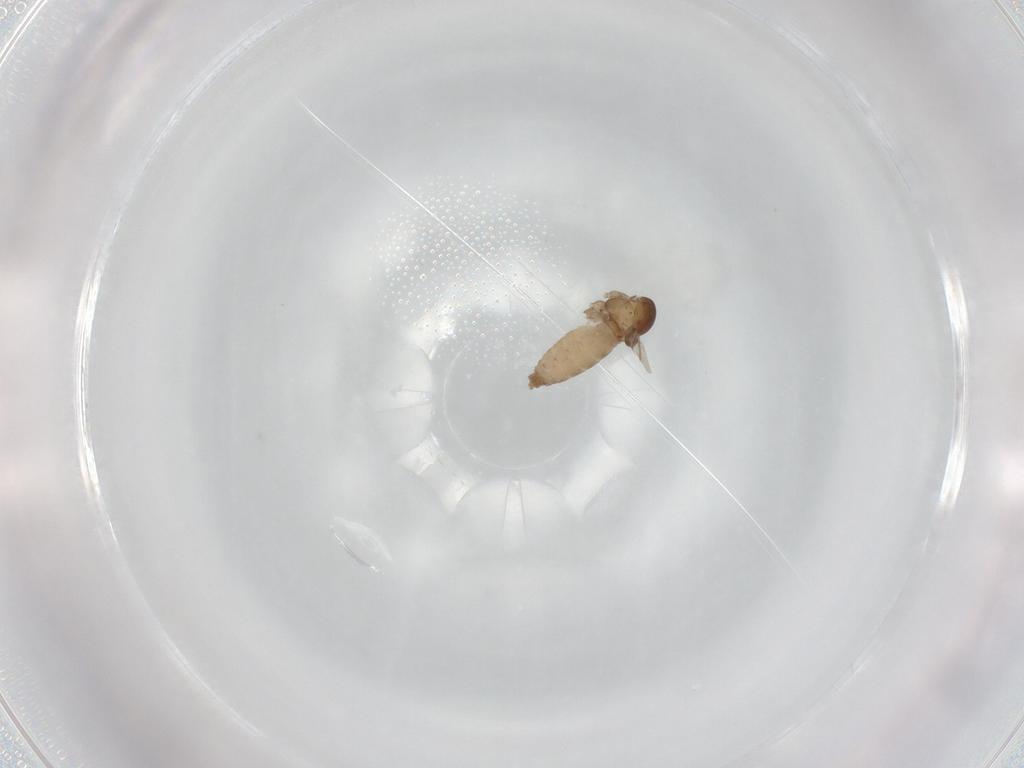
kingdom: Animalia
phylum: Arthropoda
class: Insecta
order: Diptera
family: Cecidomyiidae
